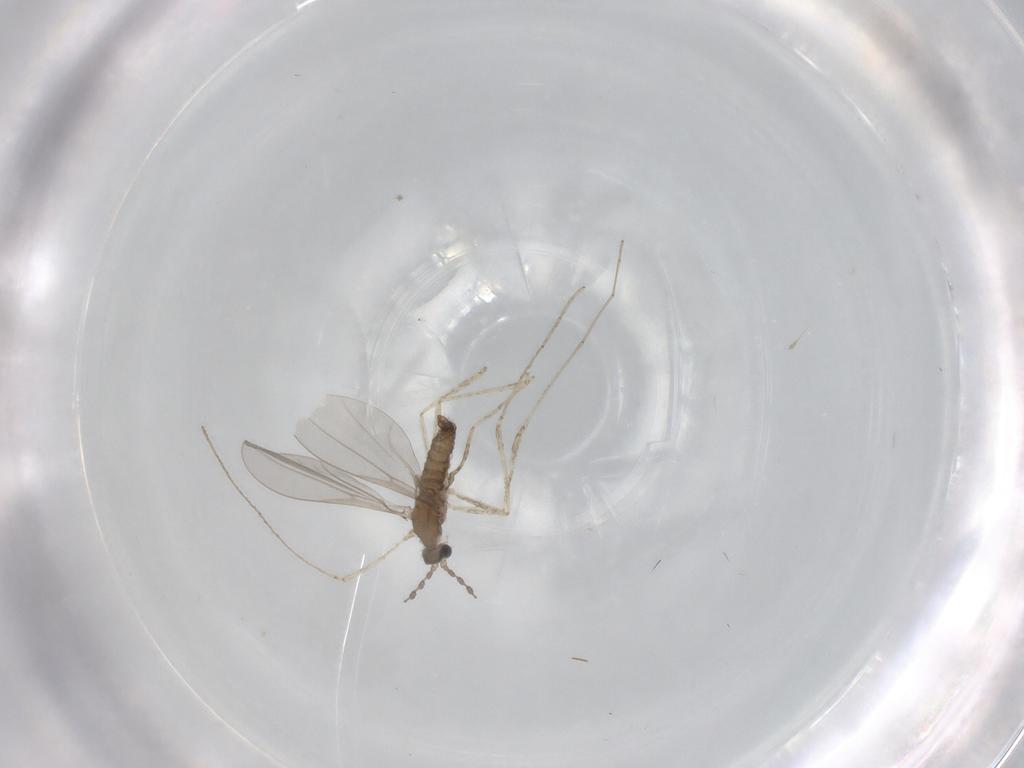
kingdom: Animalia
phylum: Arthropoda
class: Insecta
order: Diptera
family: Cecidomyiidae
